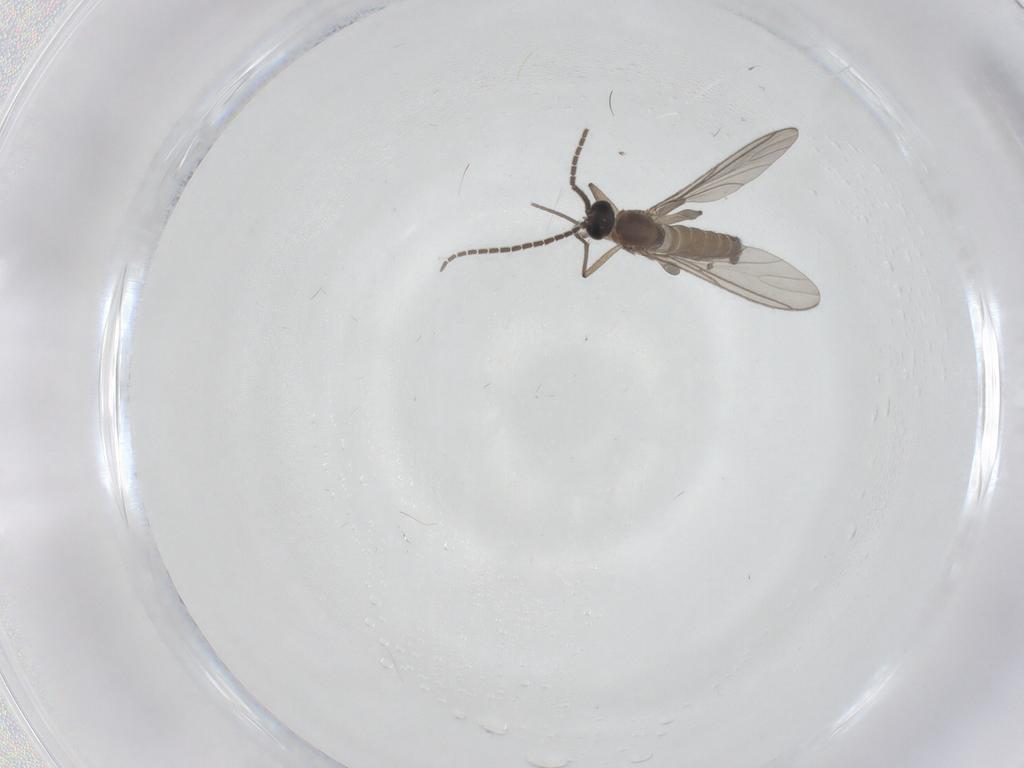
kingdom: Animalia
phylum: Arthropoda
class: Insecta
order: Diptera
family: Sciaridae
